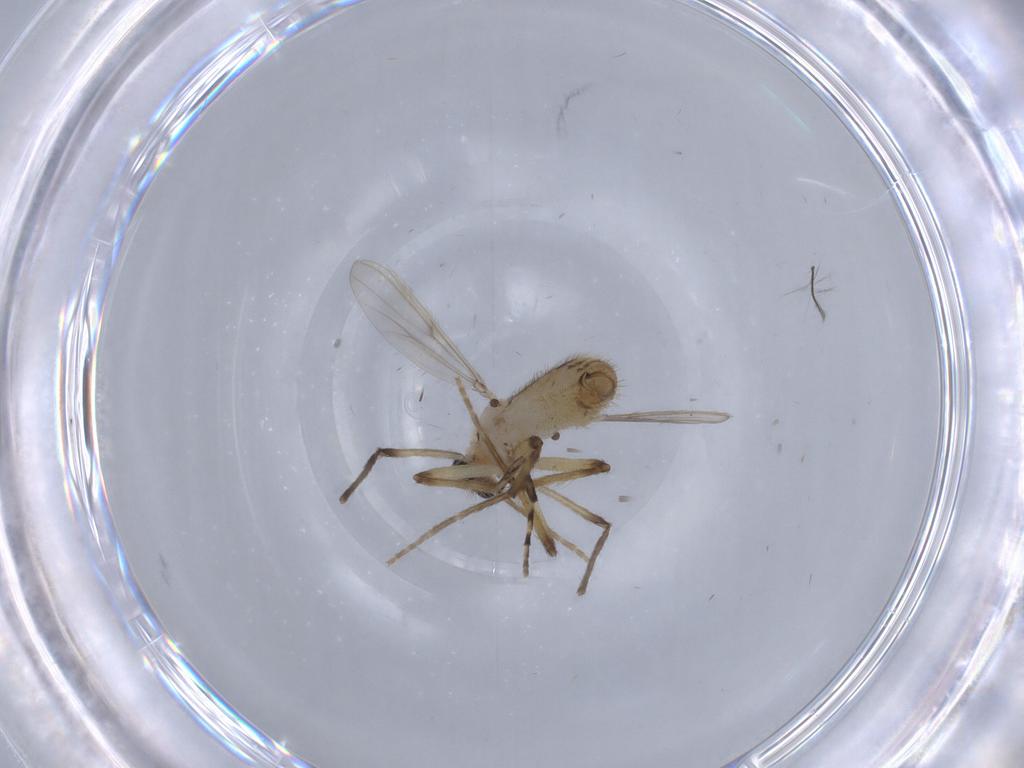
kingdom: Animalia
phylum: Arthropoda
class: Insecta
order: Diptera
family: Chironomidae
